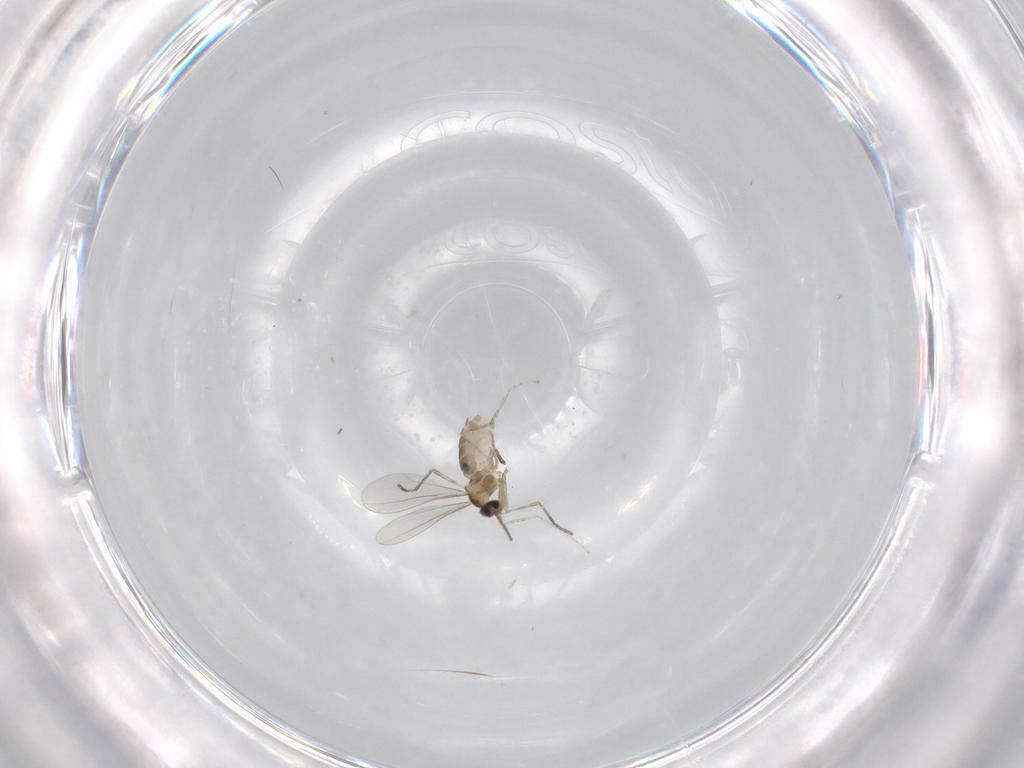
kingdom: Animalia
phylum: Arthropoda
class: Insecta
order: Diptera
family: Cecidomyiidae
